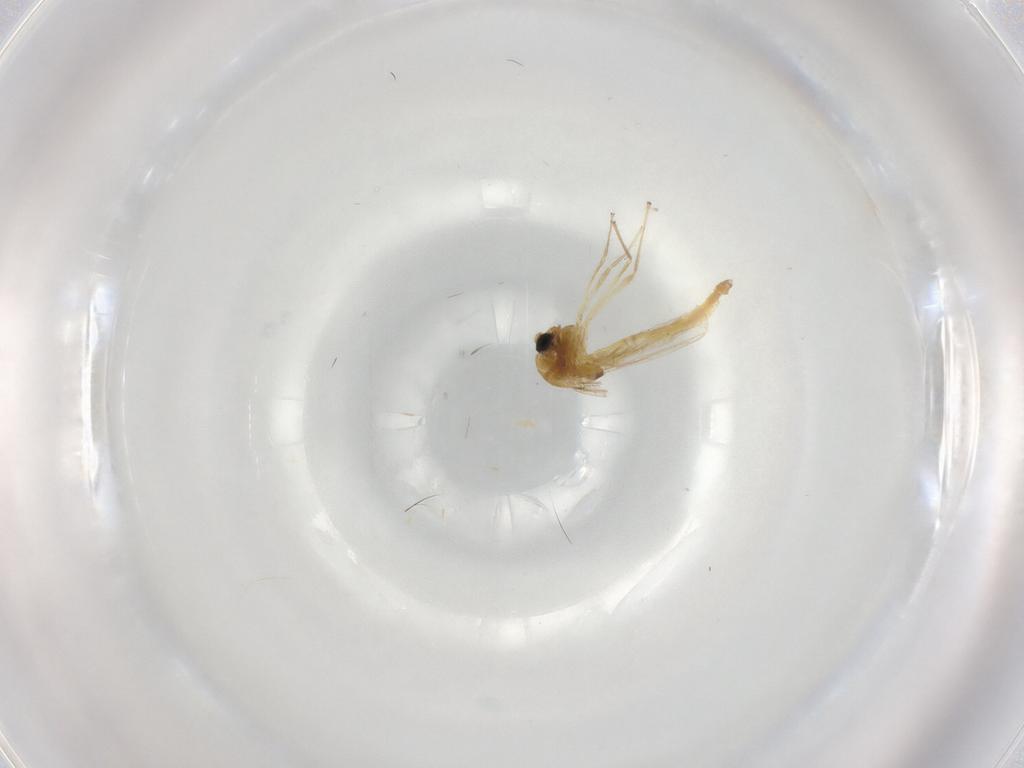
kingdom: Animalia
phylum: Arthropoda
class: Insecta
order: Diptera
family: Chironomidae
